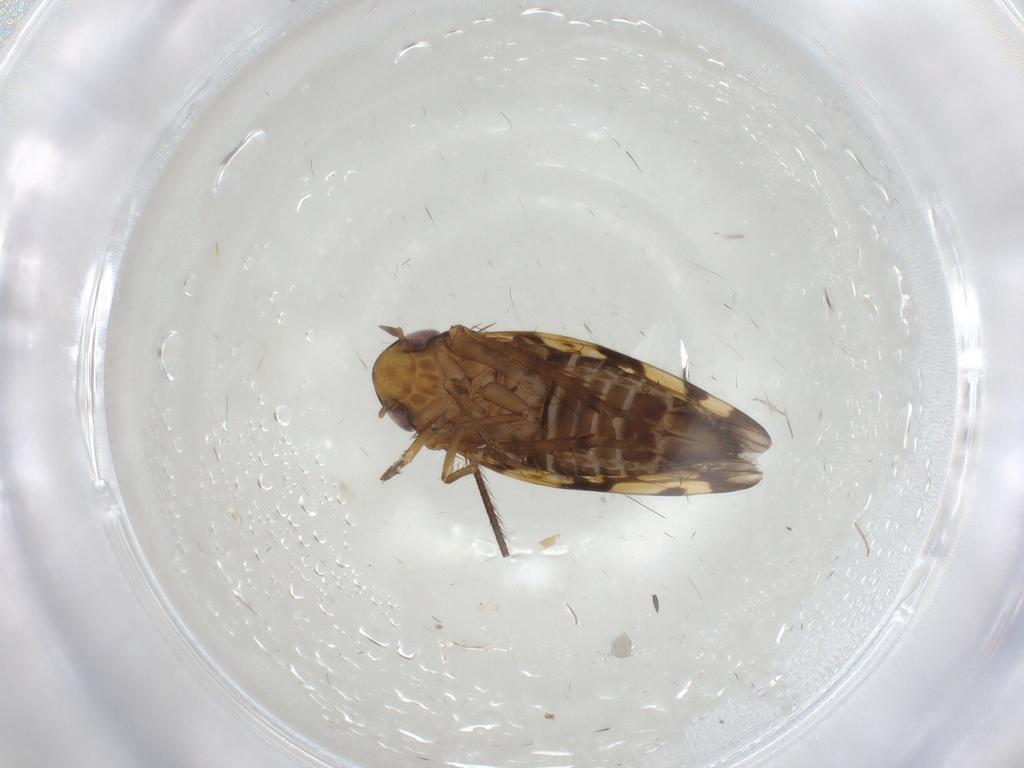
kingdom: Animalia
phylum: Arthropoda
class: Insecta
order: Hemiptera
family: Cicadellidae
